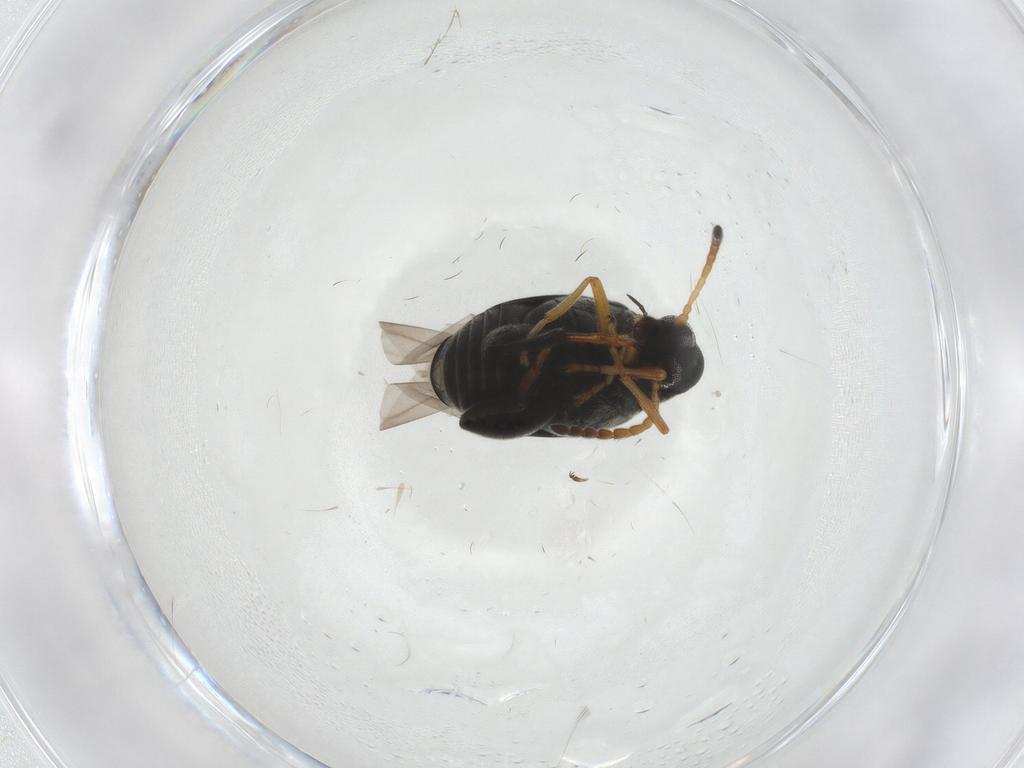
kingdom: Animalia
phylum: Arthropoda
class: Insecta
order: Coleoptera
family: Chrysomelidae
